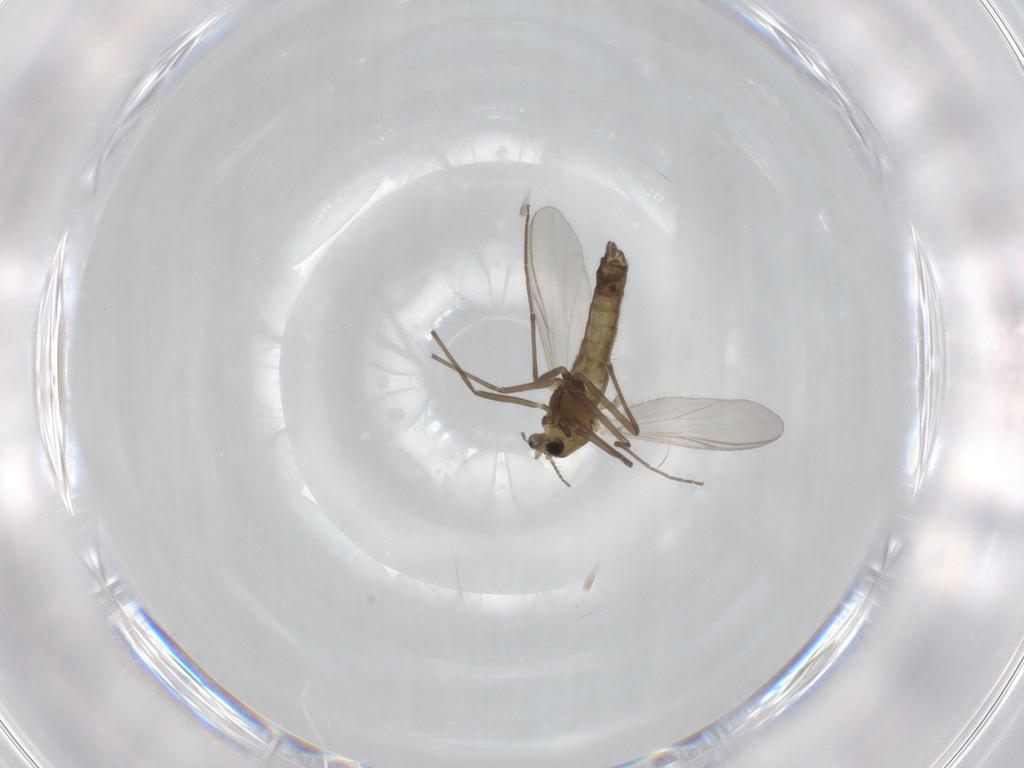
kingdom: Animalia
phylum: Arthropoda
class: Insecta
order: Diptera
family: Chironomidae
